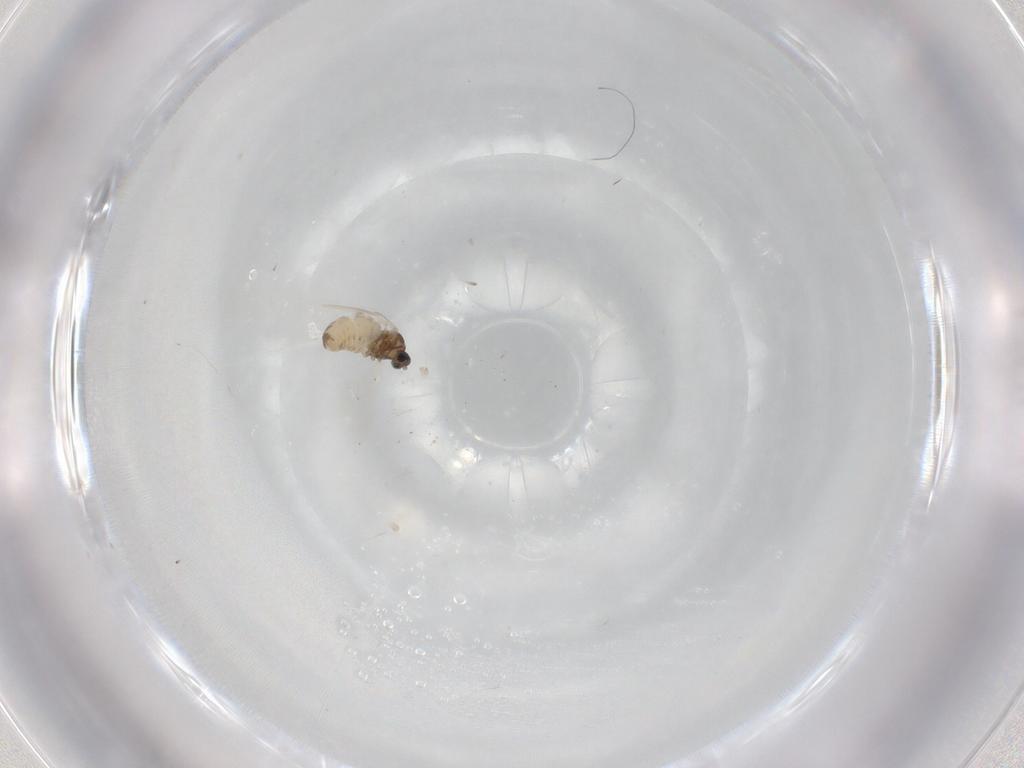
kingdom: Animalia
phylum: Arthropoda
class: Insecta
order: Diptera
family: Cecidomyiidae
